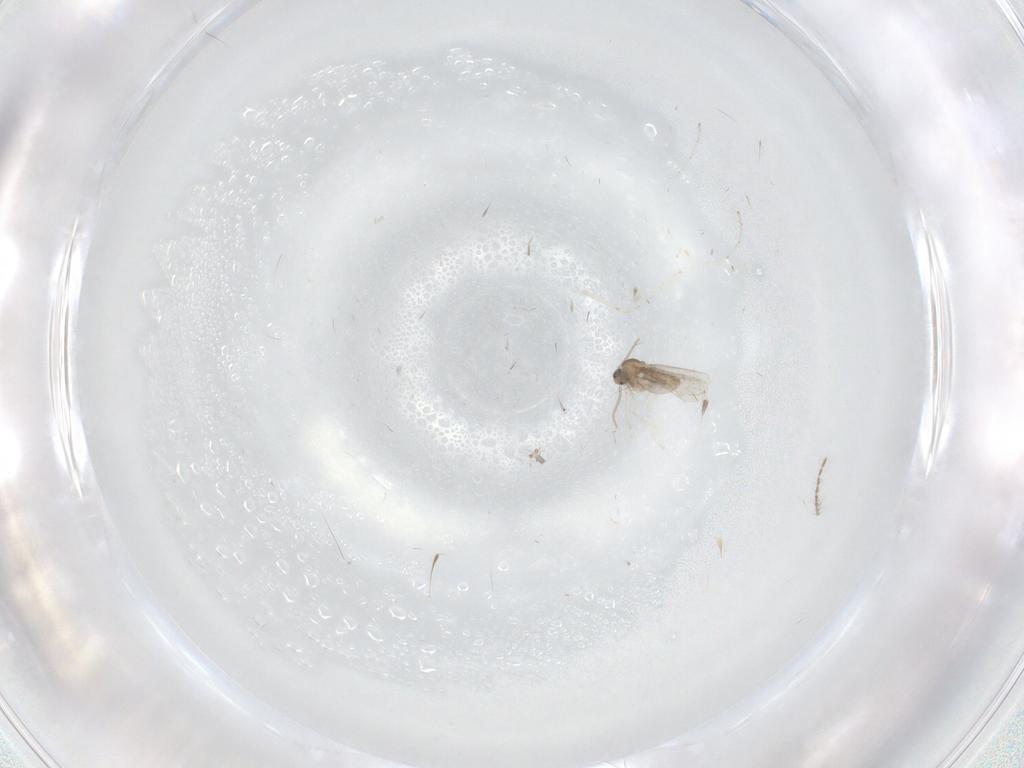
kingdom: Animalia
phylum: Arthropoda
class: Insecta
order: Diptera
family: Ceratopogonidae
